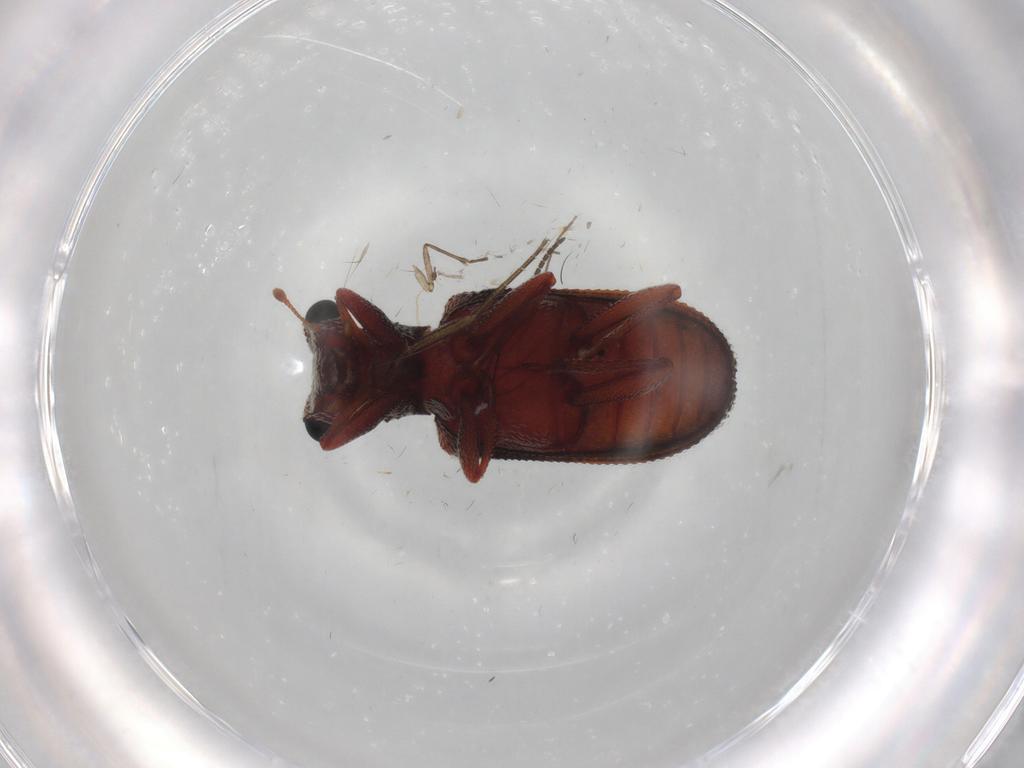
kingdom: Animalia
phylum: Arthropoda
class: Insecta
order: Coleoptera
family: Zopheridae
